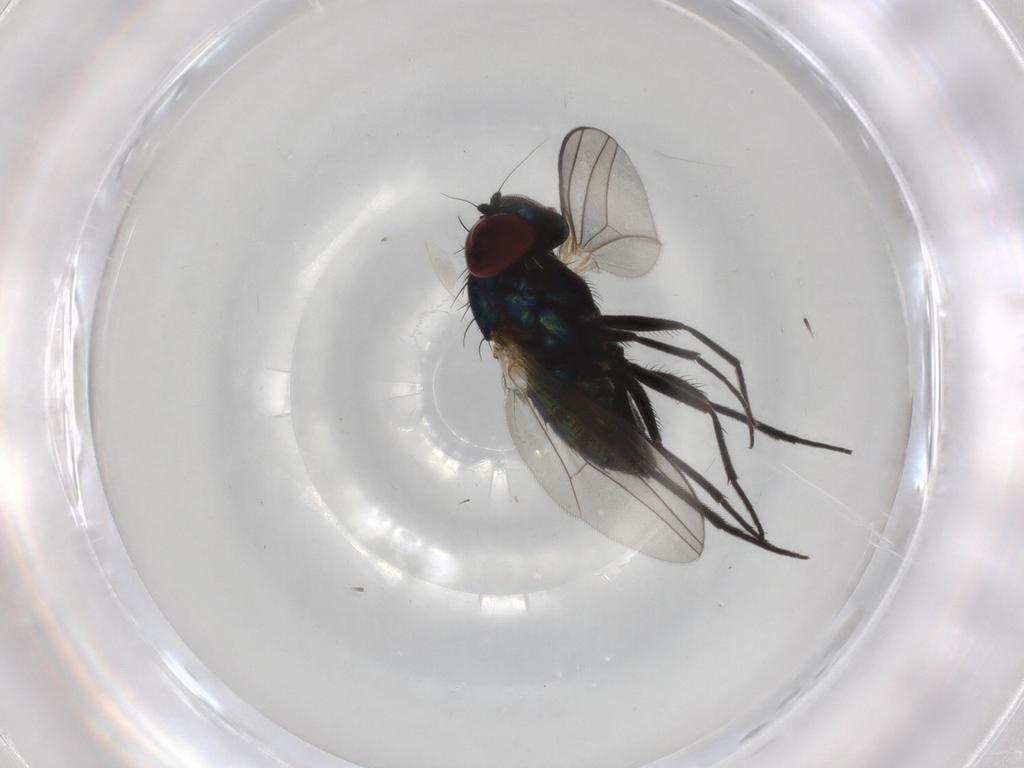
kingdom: Animalia
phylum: Arthropoda
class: Insecta
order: Diptera
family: Dolichopodidae
